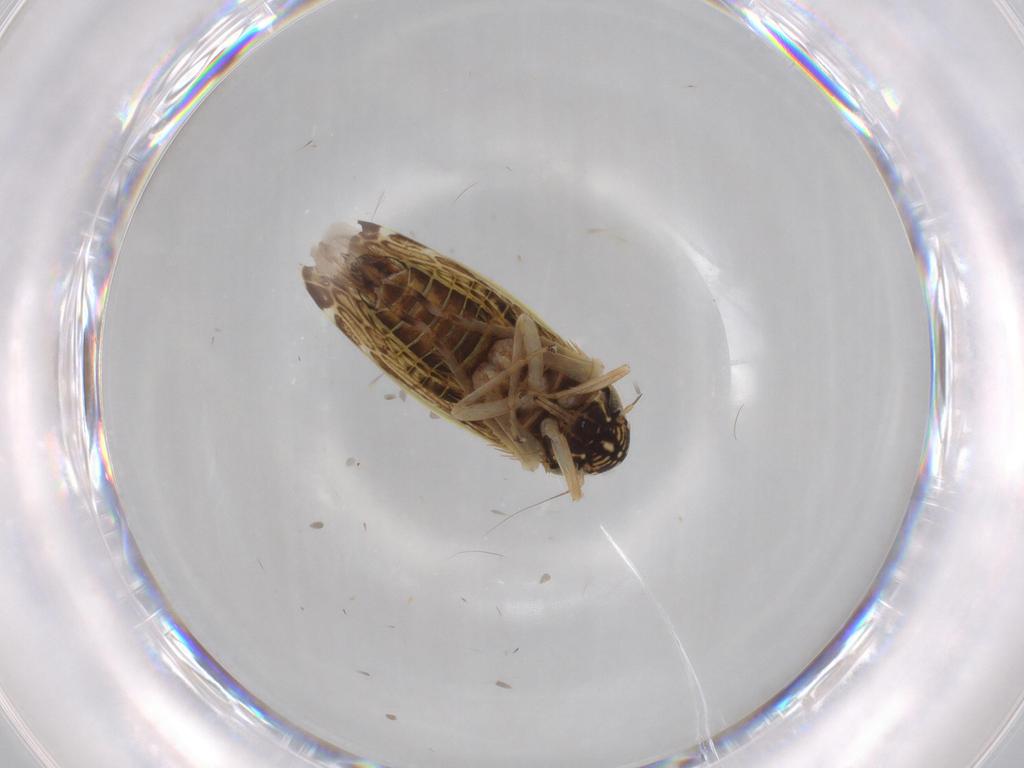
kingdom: Animalia
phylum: Arthropoda
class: Insecta
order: Hemiptera
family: Cicadellidae
